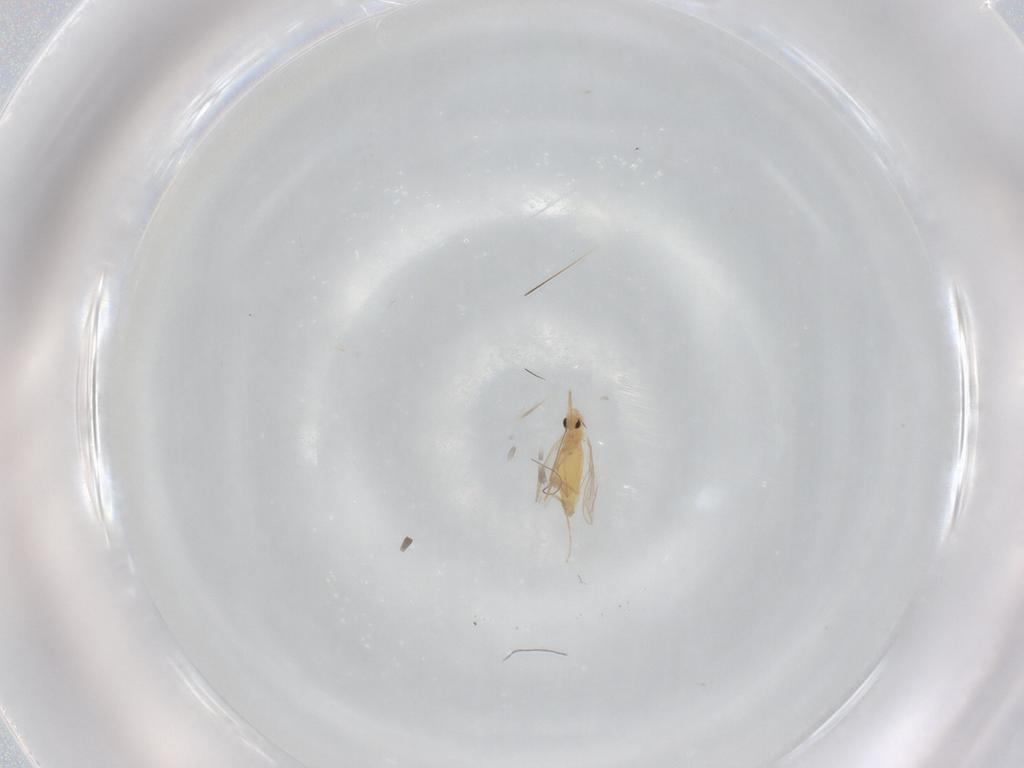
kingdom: Animalia
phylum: Arthropoda
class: Insecta
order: Diptera
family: Chironomidae
